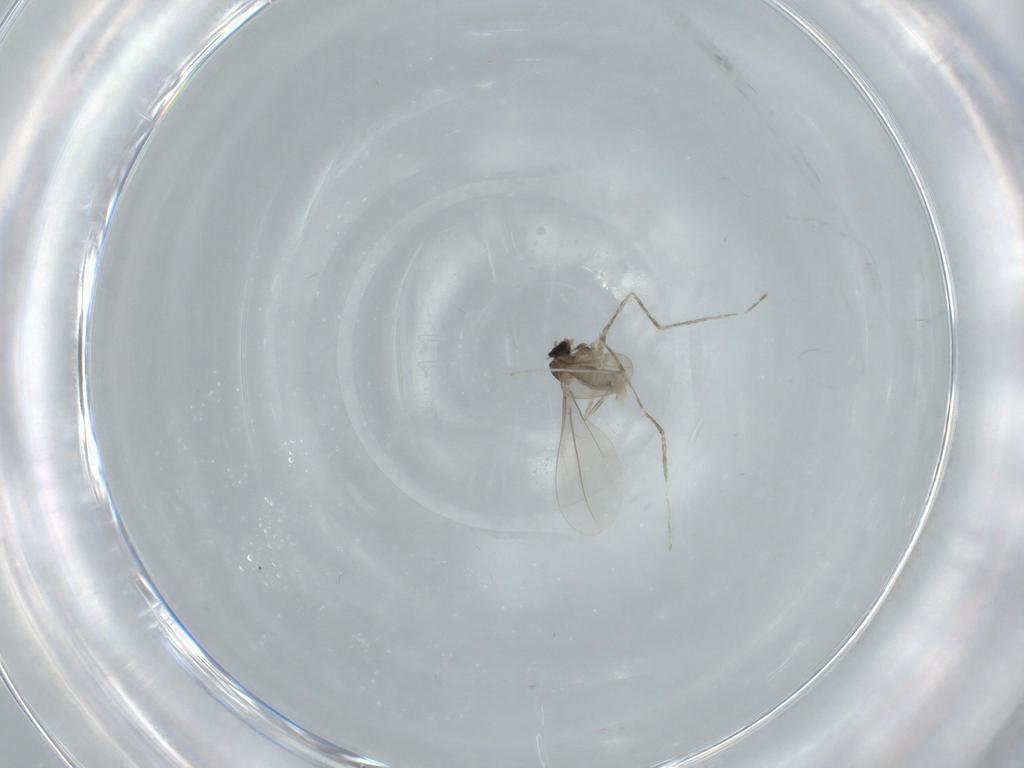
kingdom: Animalia
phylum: Arthropoda
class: Insecta
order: Diptera
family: Cecidomyiidae
